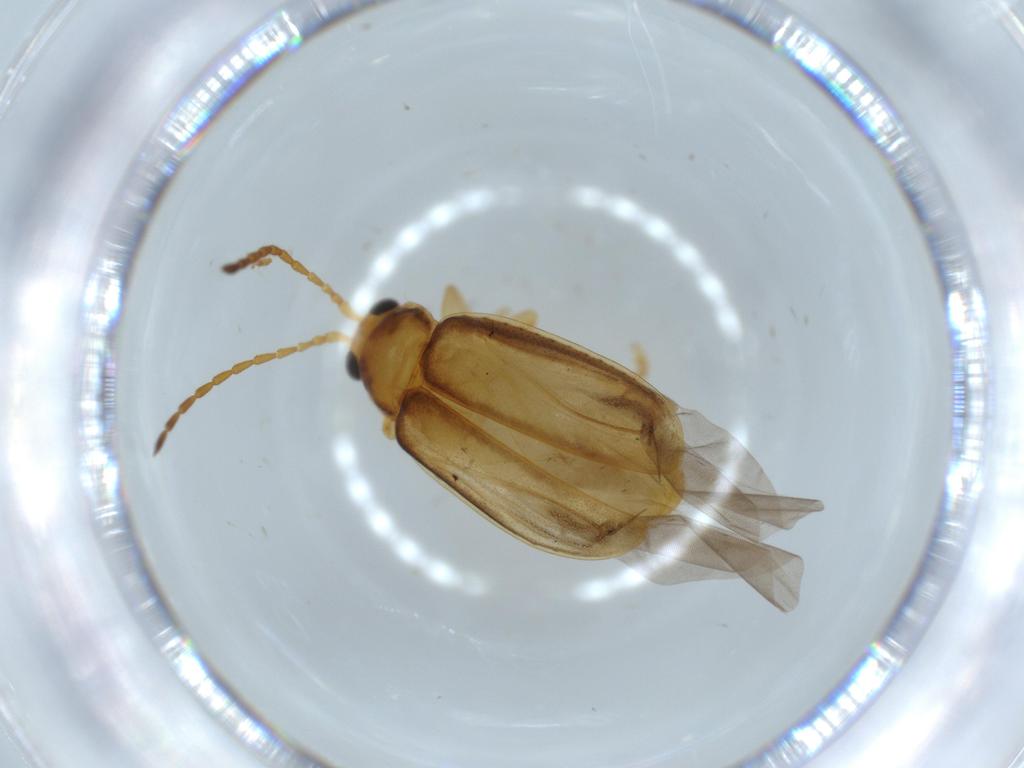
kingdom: Animalia
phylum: Arthropoda
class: Insecta
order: Coleoptera
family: Chrysomelidae
